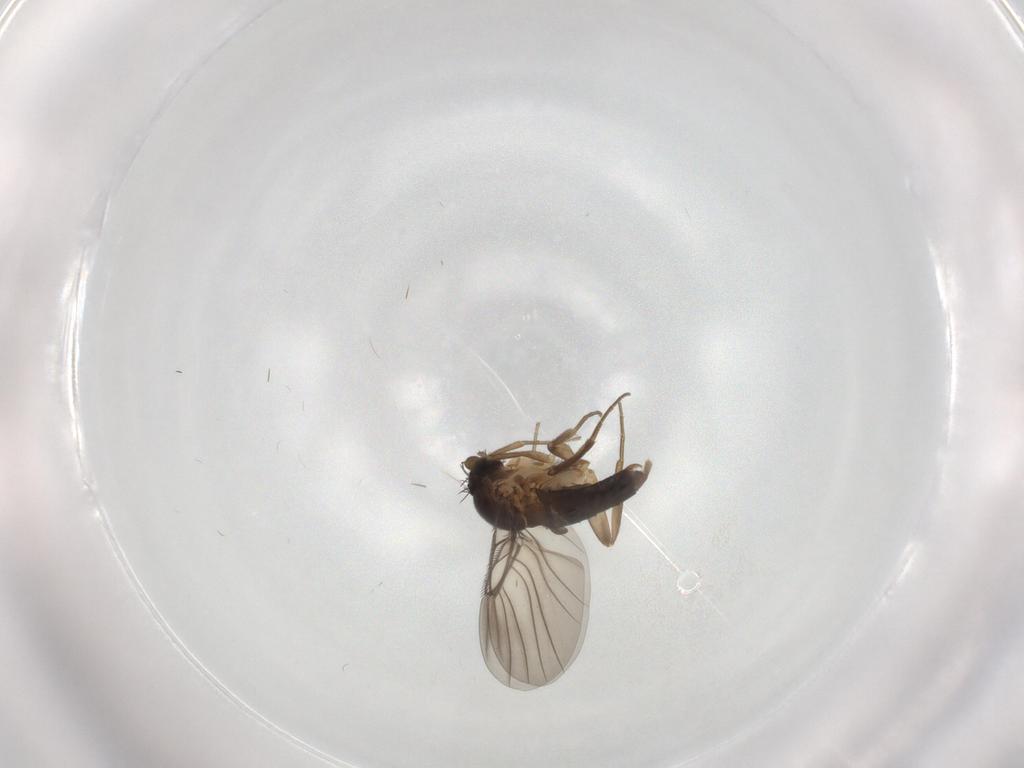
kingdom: Animalia
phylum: Arthropoda
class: Insecta
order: Diptera
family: Phoridae
